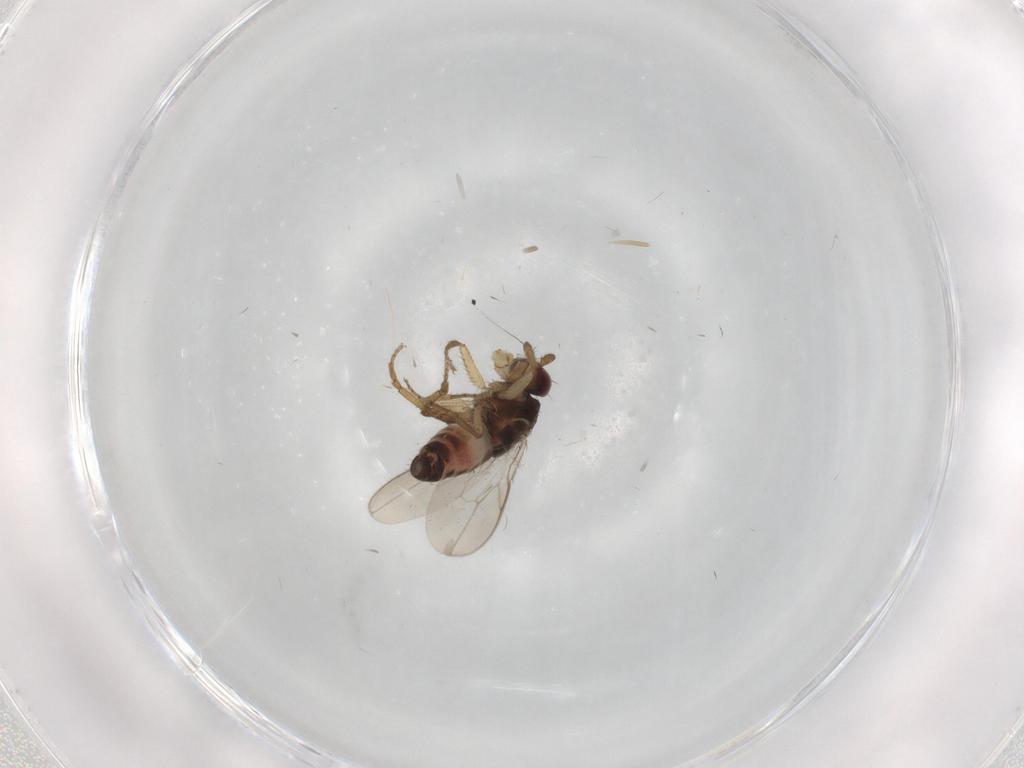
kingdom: Animalia
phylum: Arthropoda
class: Insecta
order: Diptera
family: Sphaeroceridae
